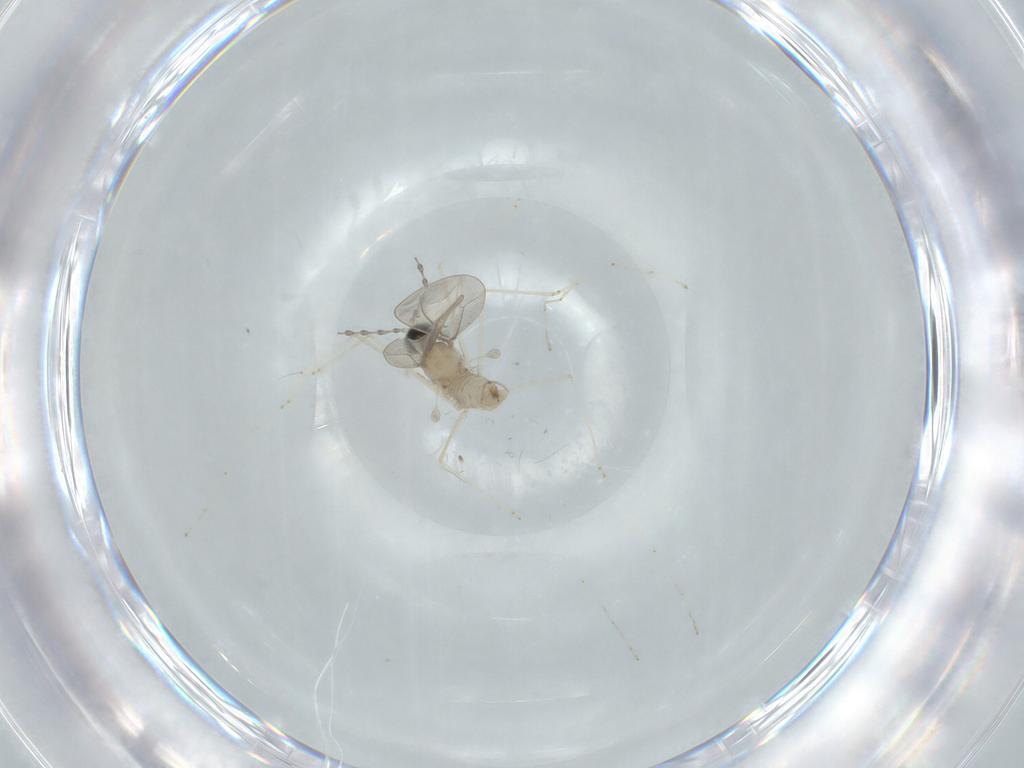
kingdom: Animalia
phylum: Arthropoda
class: Insecta
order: Diptera
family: Cecidomyiidae
